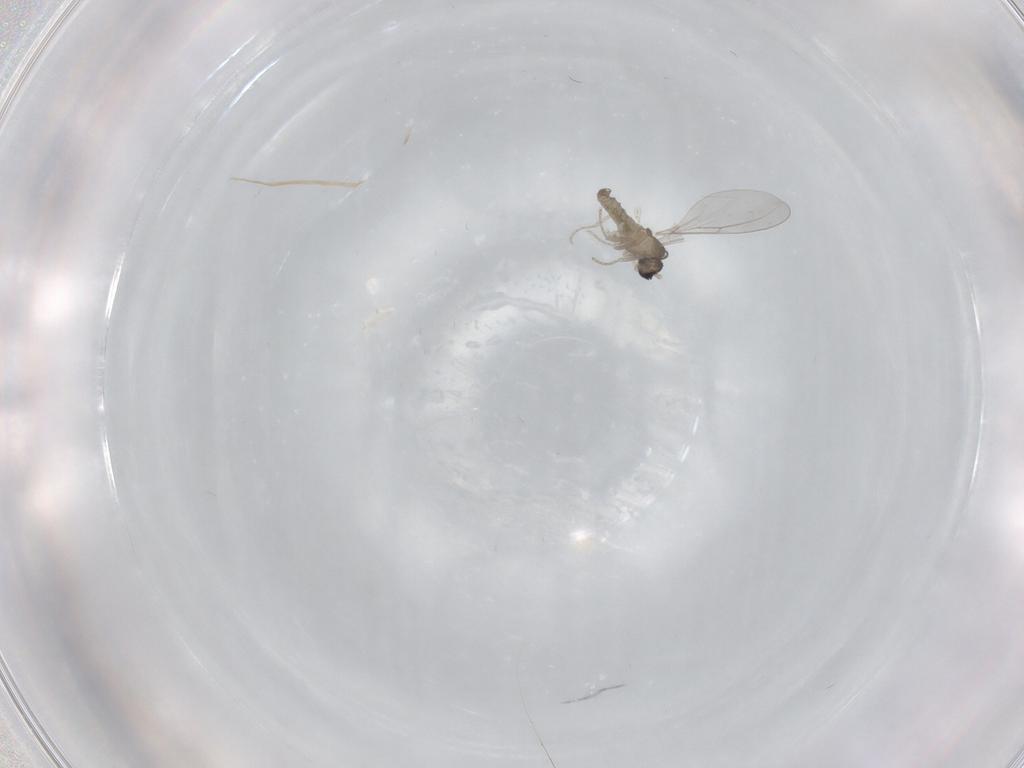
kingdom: Animalia
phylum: Arthropoda
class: Insecta
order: Diptera
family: Cecidomyiidae
